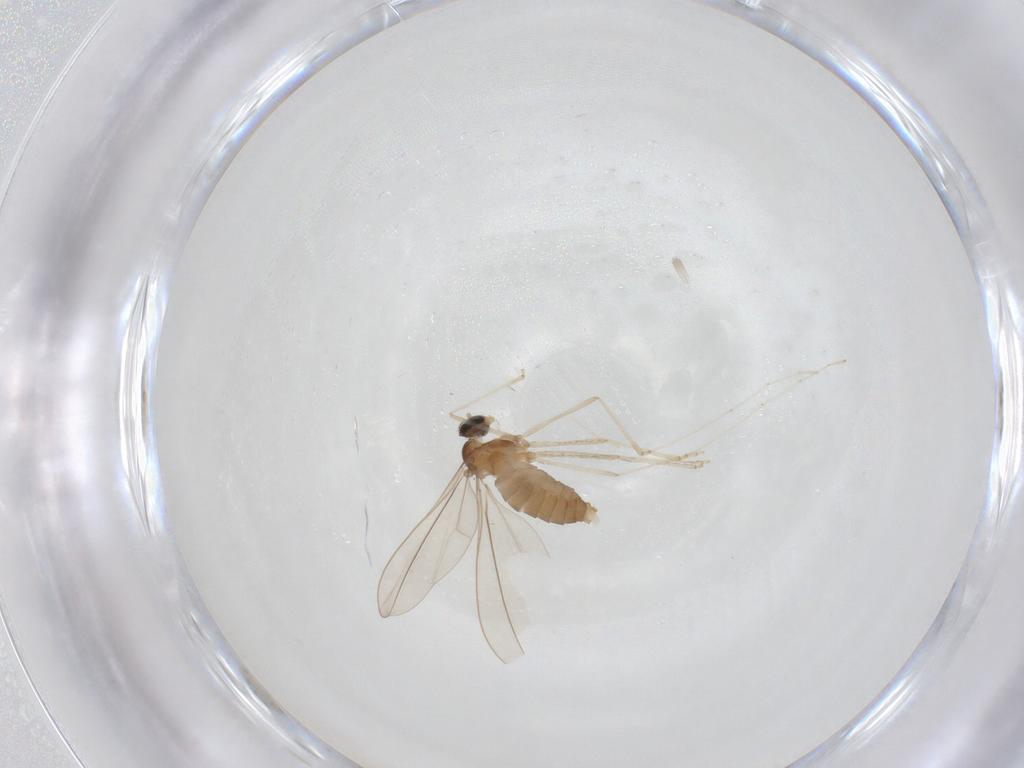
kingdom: Animalia
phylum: Arthropoda
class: Insecta
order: Diptera
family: Cecidomyiidae
